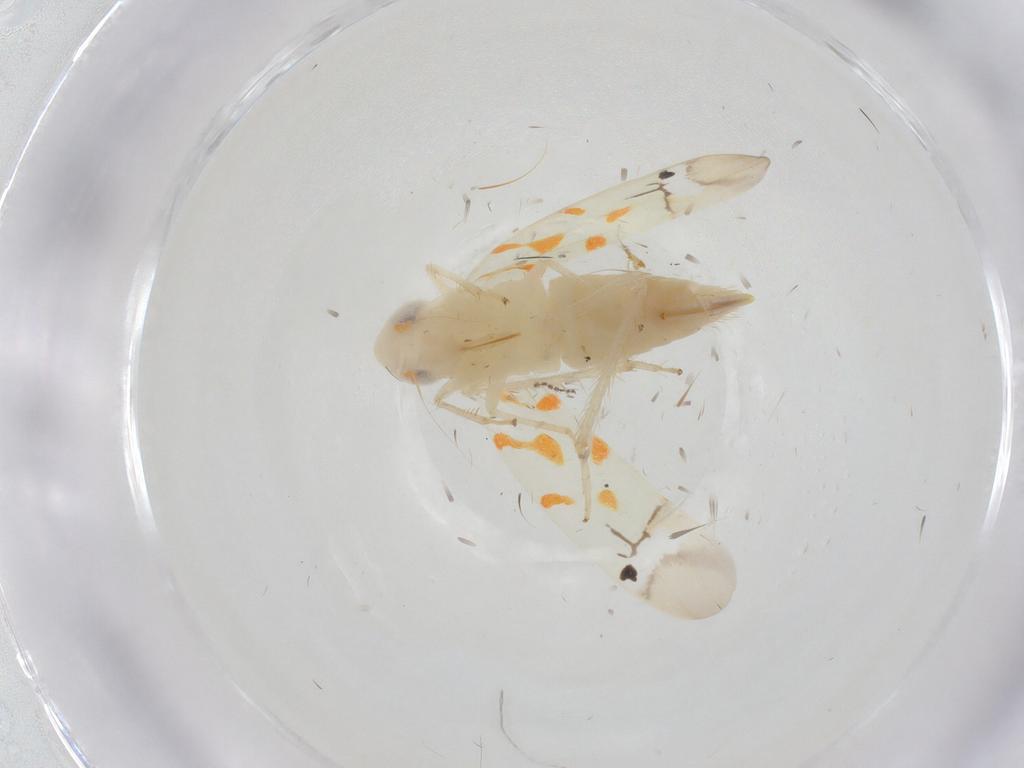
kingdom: Animalia
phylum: Arthropoda
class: Insecta
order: Hemiptera
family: Cicadellidae
